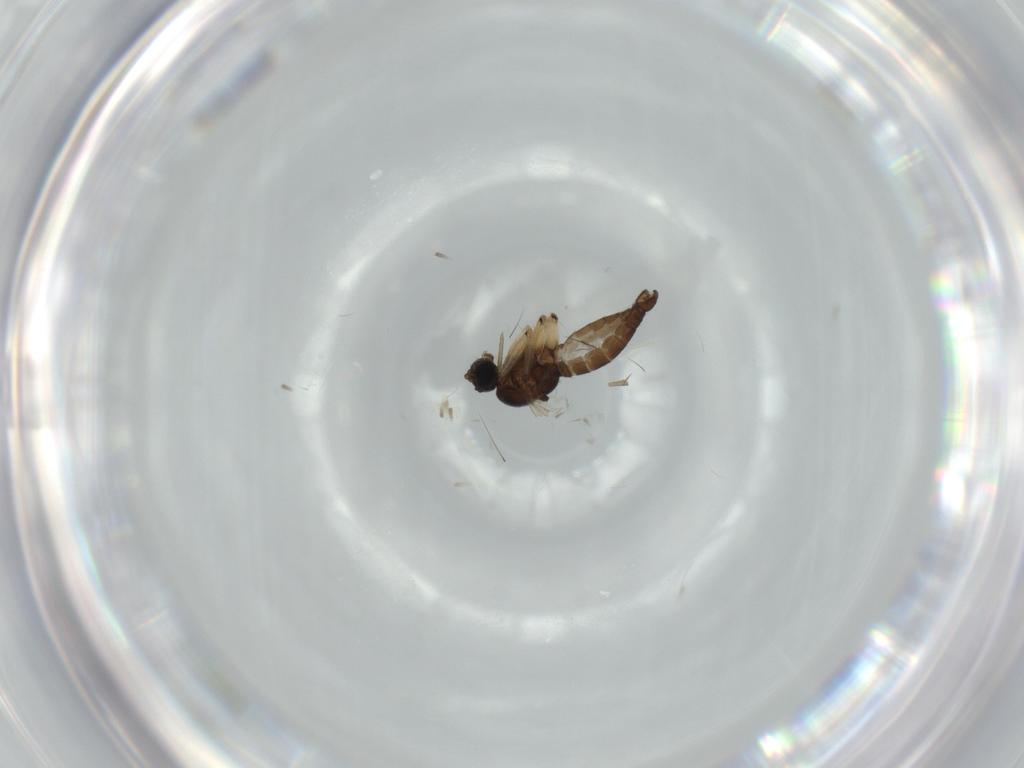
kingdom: Animalia
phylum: Arthropoda
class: Insecta
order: Diptera
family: Sciaridae
